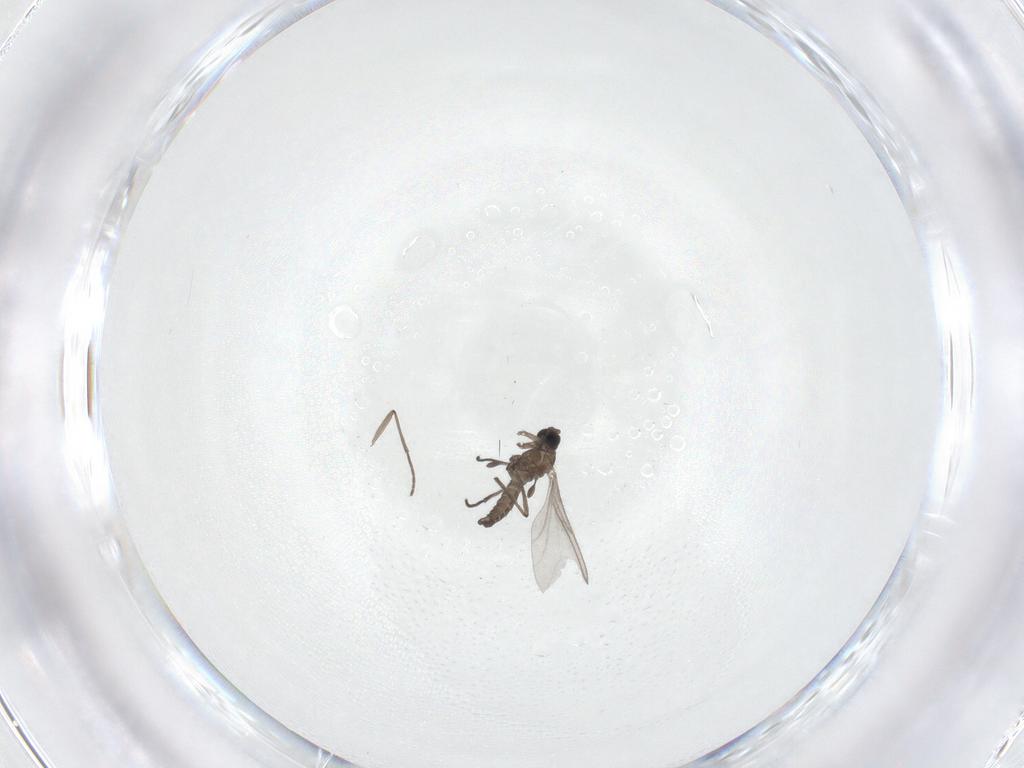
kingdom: Animalia
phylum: Arthropoda
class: Insecta
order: Diptera
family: Sciaridae
